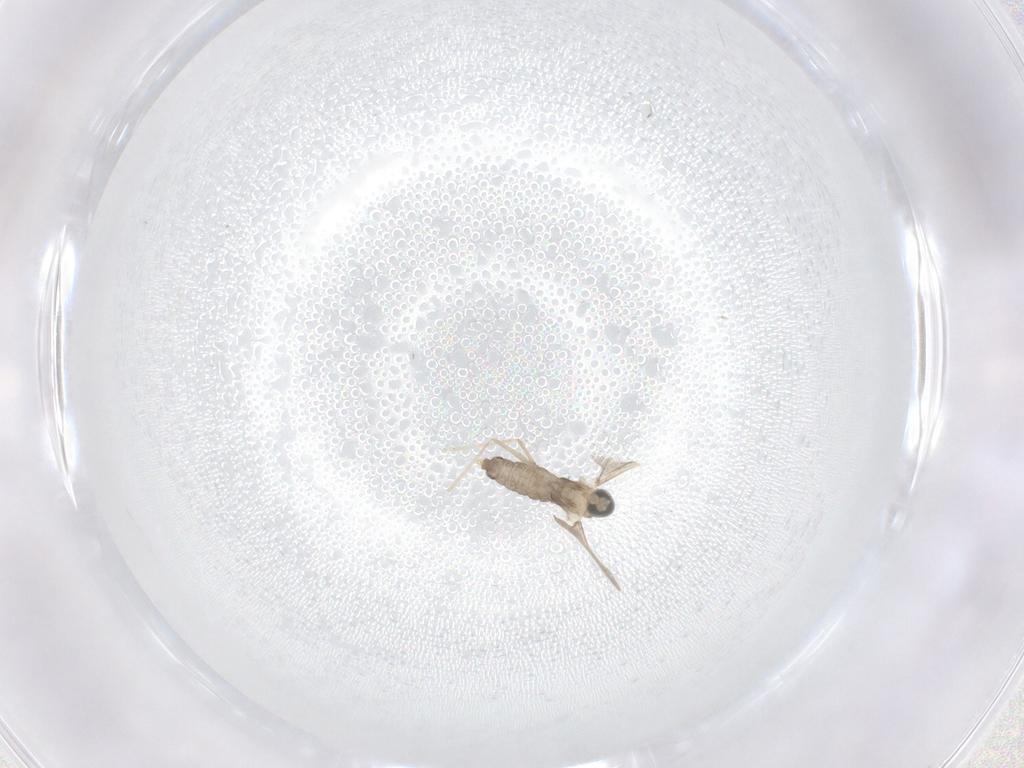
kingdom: Animalia
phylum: Arthropoda
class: Insecta
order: Diptera
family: Cecidomyiidae
